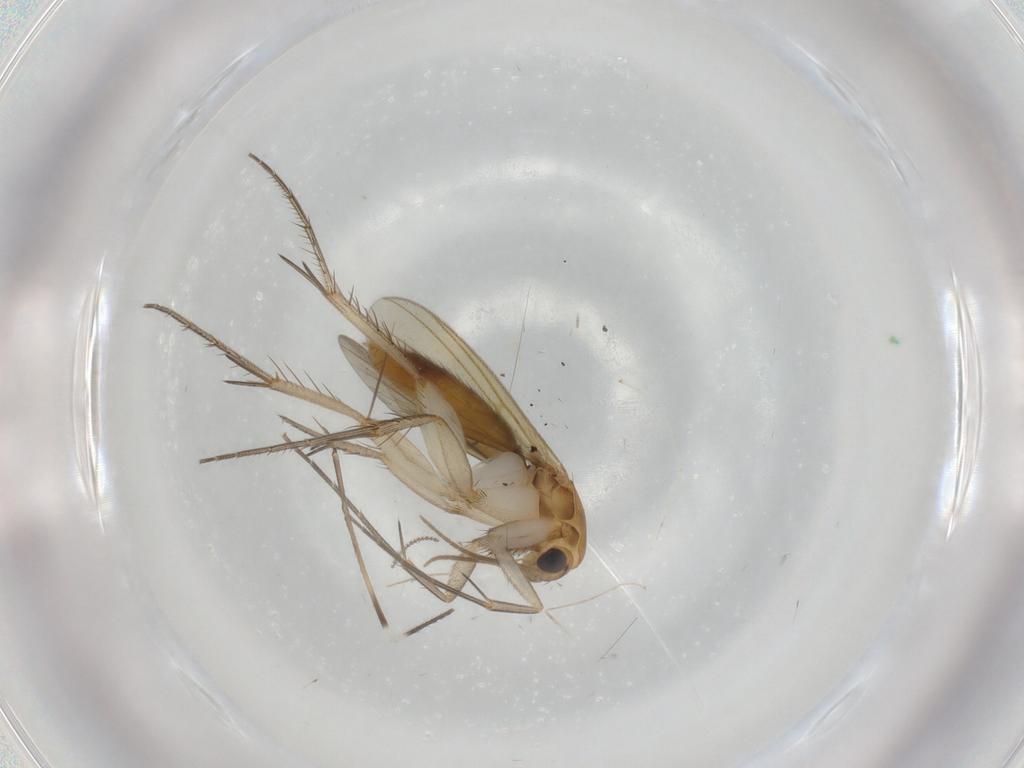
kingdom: Animalia
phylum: Arthropoda
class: Insecta
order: Diptera
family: Mycetophilidae
